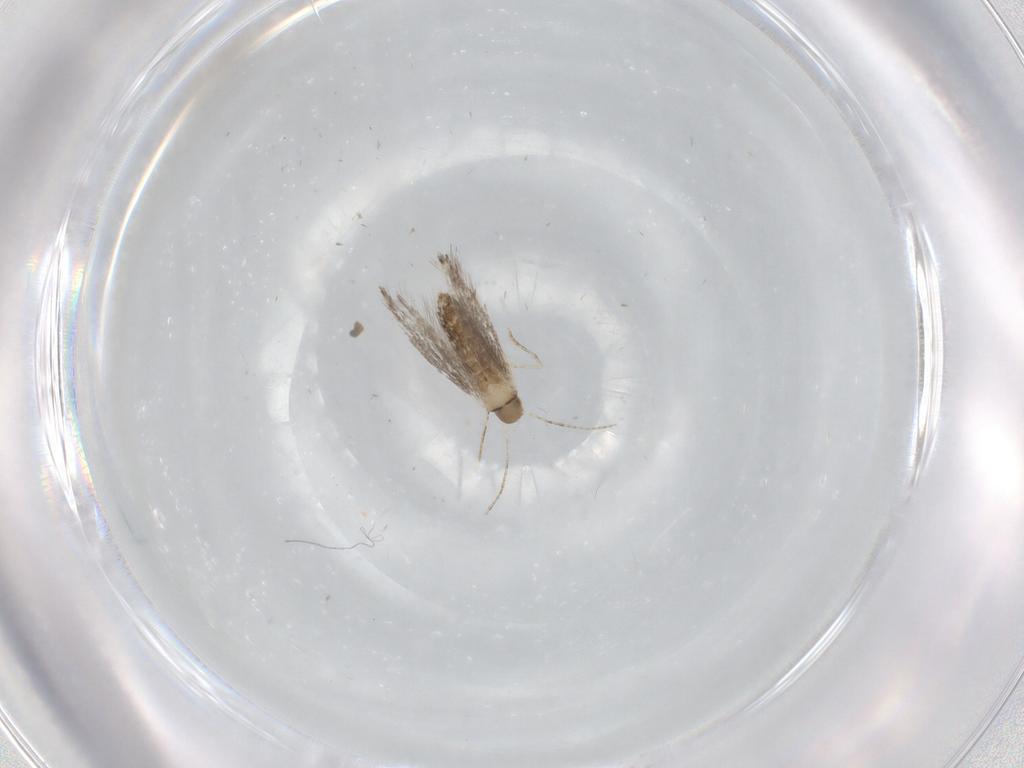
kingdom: Animalia
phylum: Arthropoda
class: Insecta
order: Lepidoptera
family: Gracillariidae
